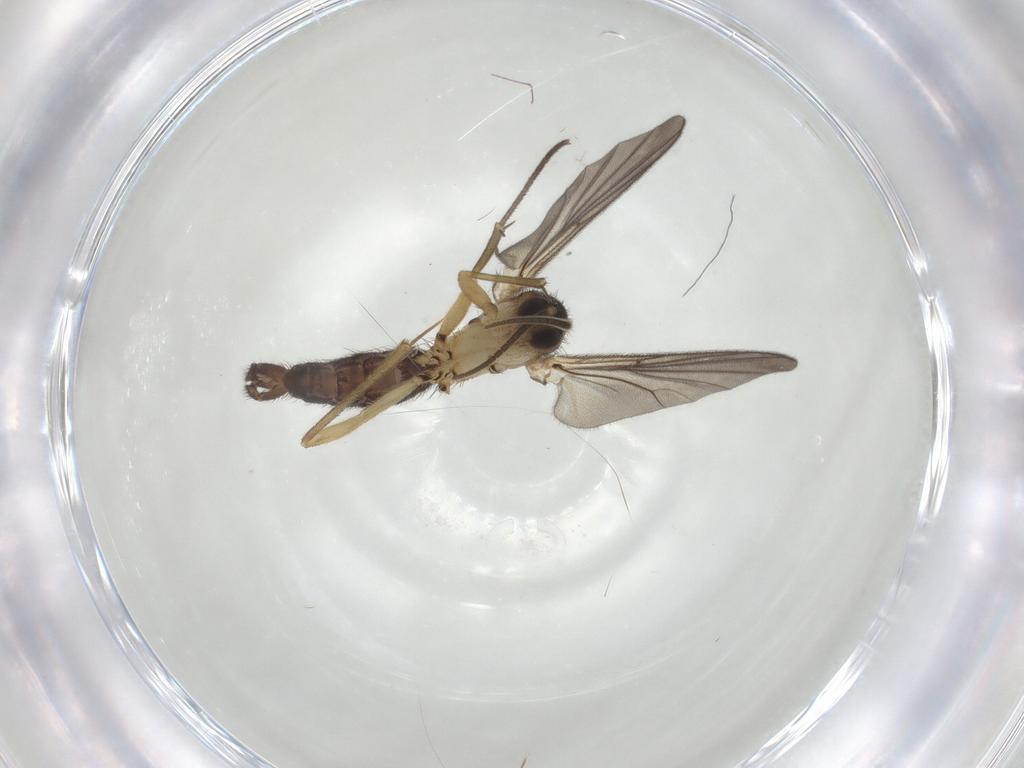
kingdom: Animalia
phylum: Arthropoda
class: Insecta
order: Diptera
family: Mycetophilidae
